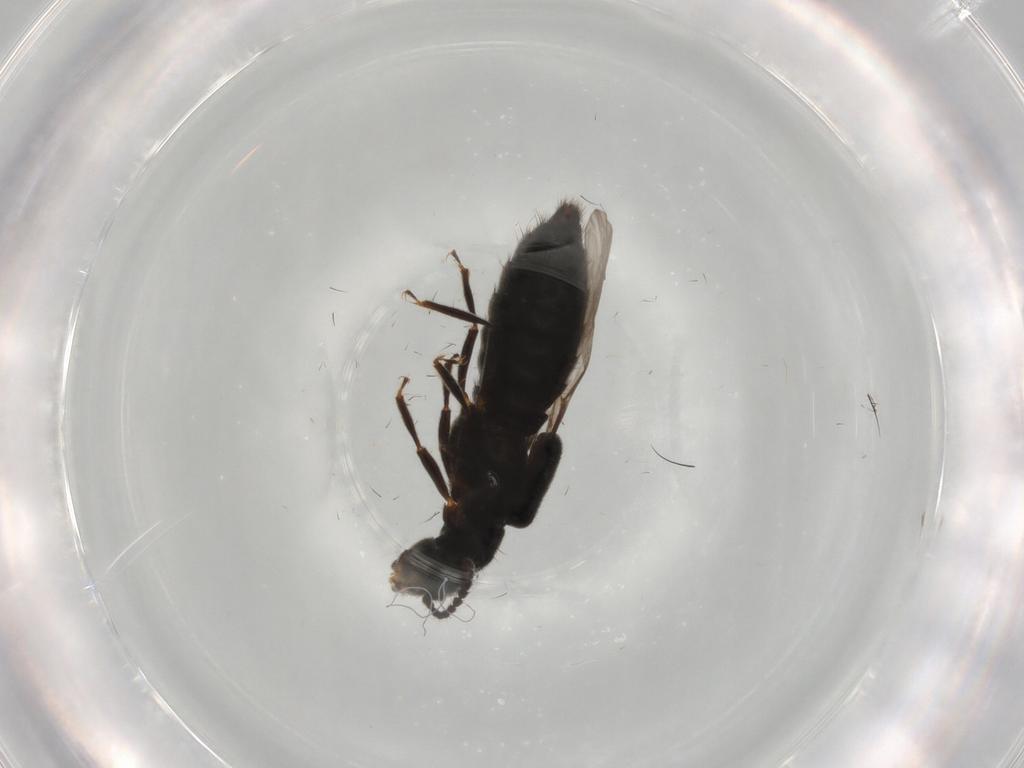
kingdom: Animalia
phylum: Arthropoda
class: Insecta
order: Coleoptera
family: Staphylinidae
